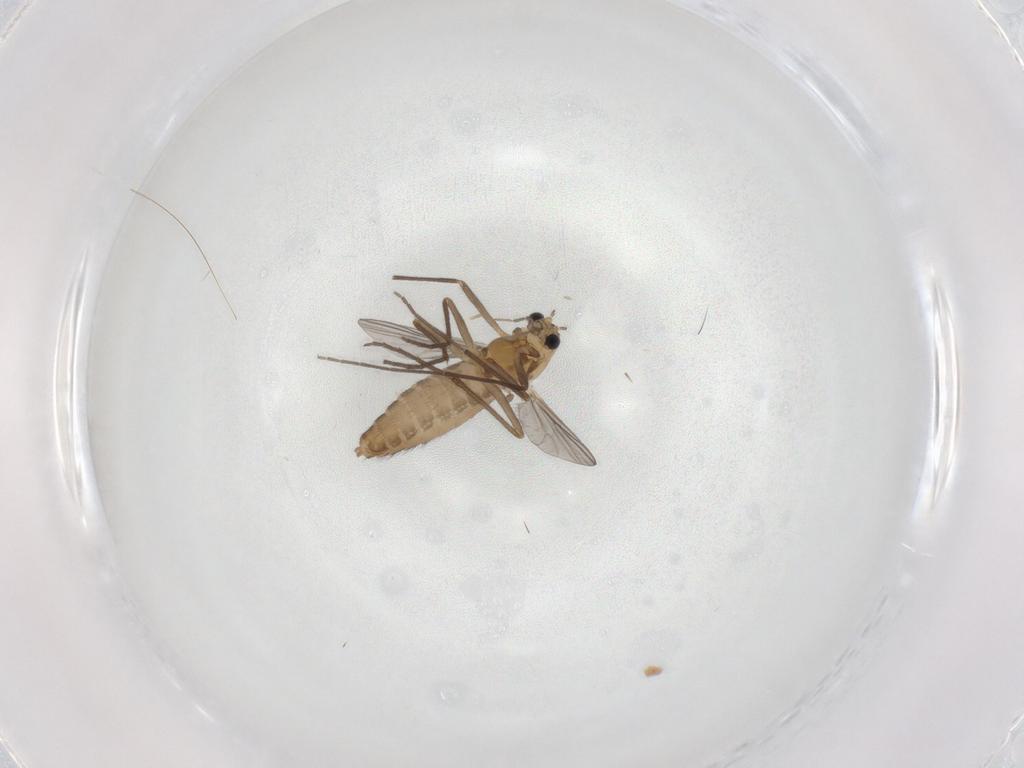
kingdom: Animalia
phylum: Arthropoda
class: Insecta
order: Diptera
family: Chironomidae
